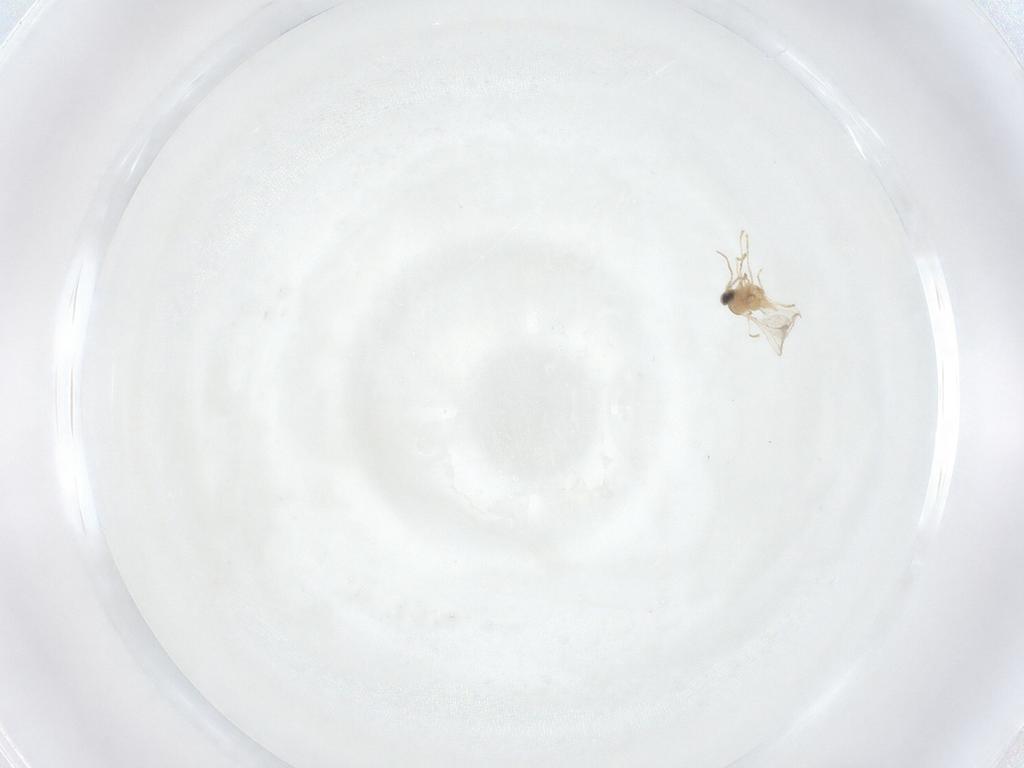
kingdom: Animalia
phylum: Arthropoda
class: Insecta
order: Diptera
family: Cecidomyiidae
